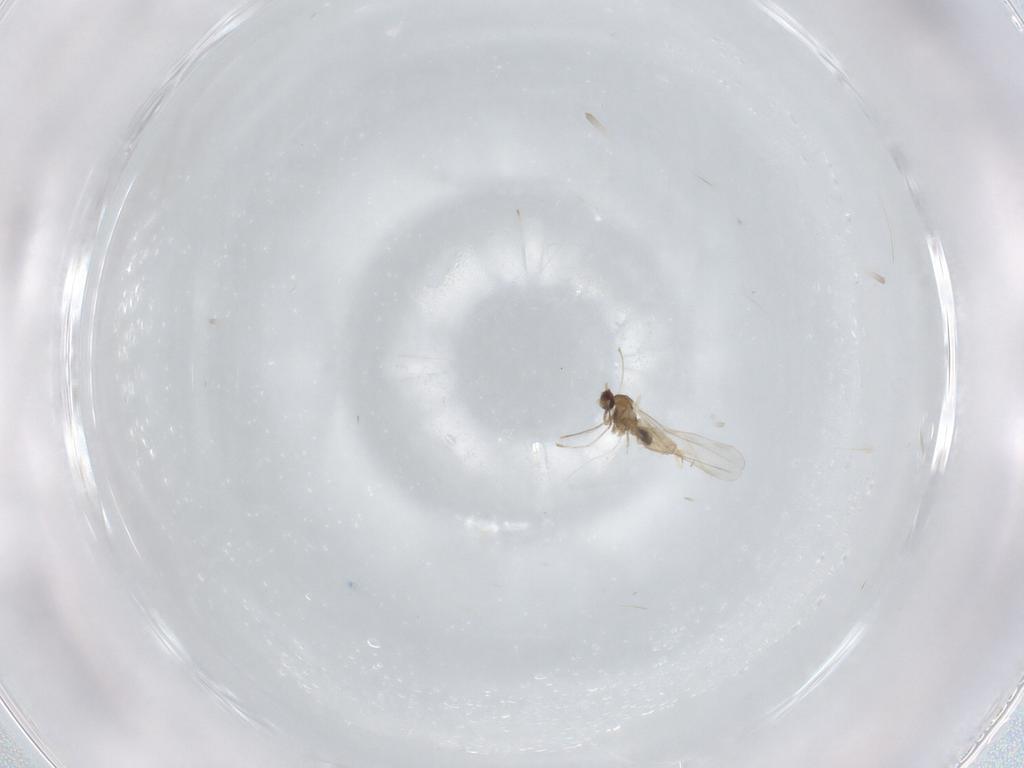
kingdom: Animalia
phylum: Arthropoda
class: Insecta
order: Diptera
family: Cecidomyiidae
